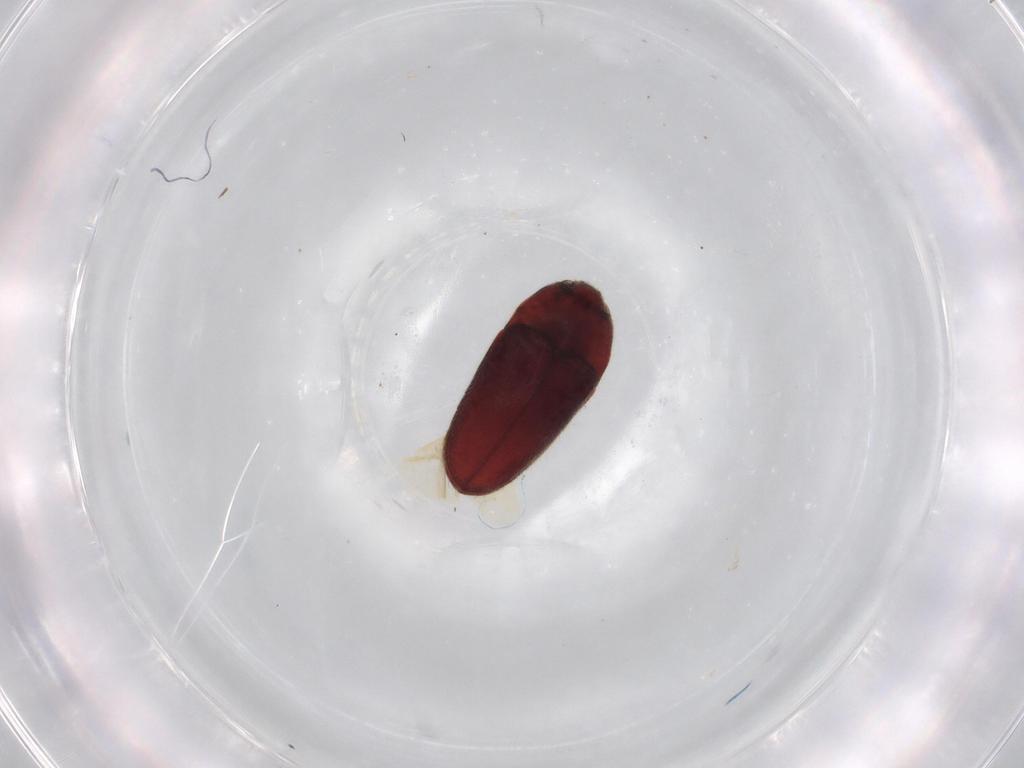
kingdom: Animalia
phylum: Arthropoda
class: Insecta
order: Coleoptera
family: Throscidae
